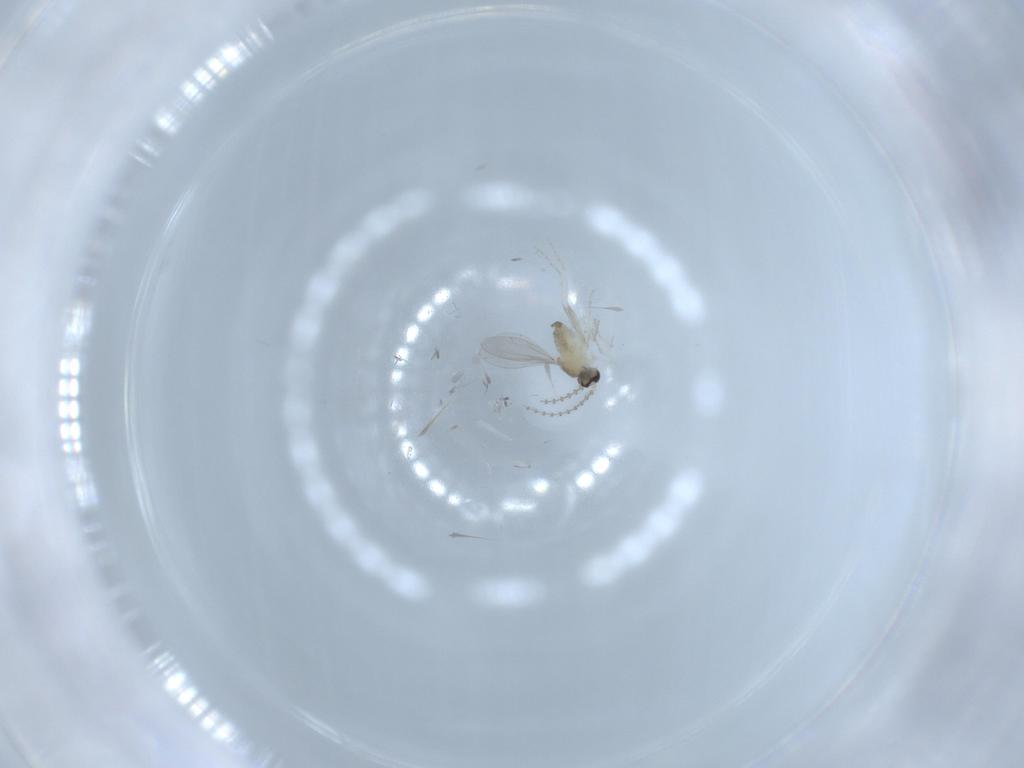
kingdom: Animalia
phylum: Arthropoda
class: Insecta
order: Diptera
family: Cecidomyiidae
